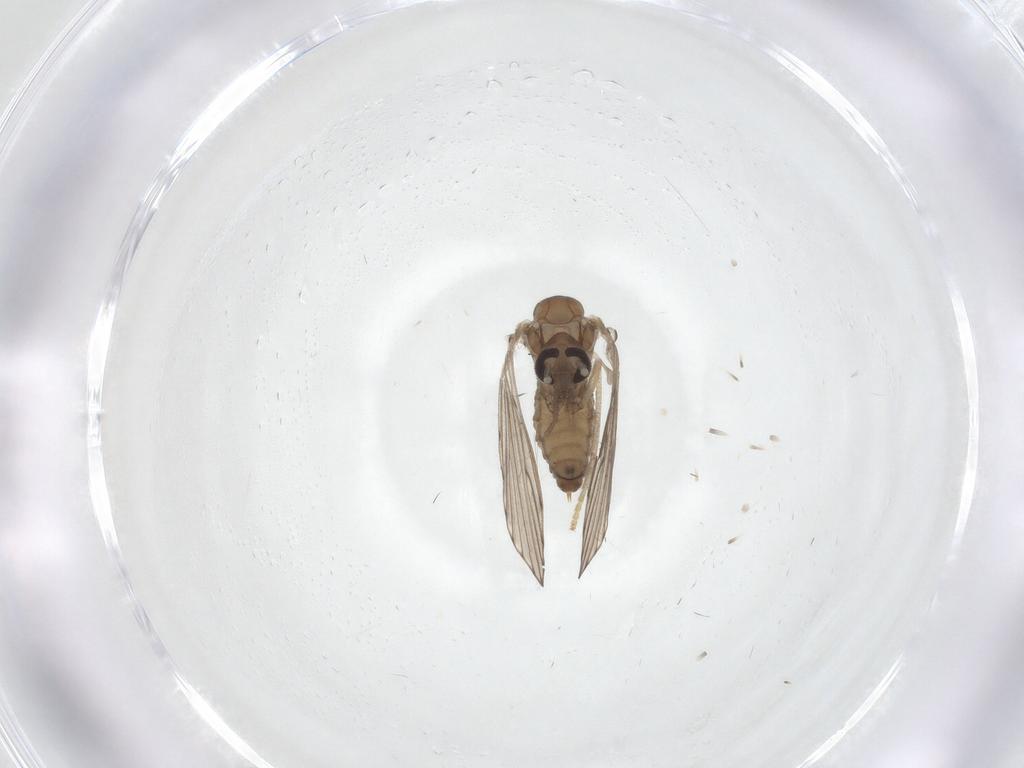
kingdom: Animalia
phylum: Arthropoda
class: Insecta
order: Diptera
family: Psychodidae
